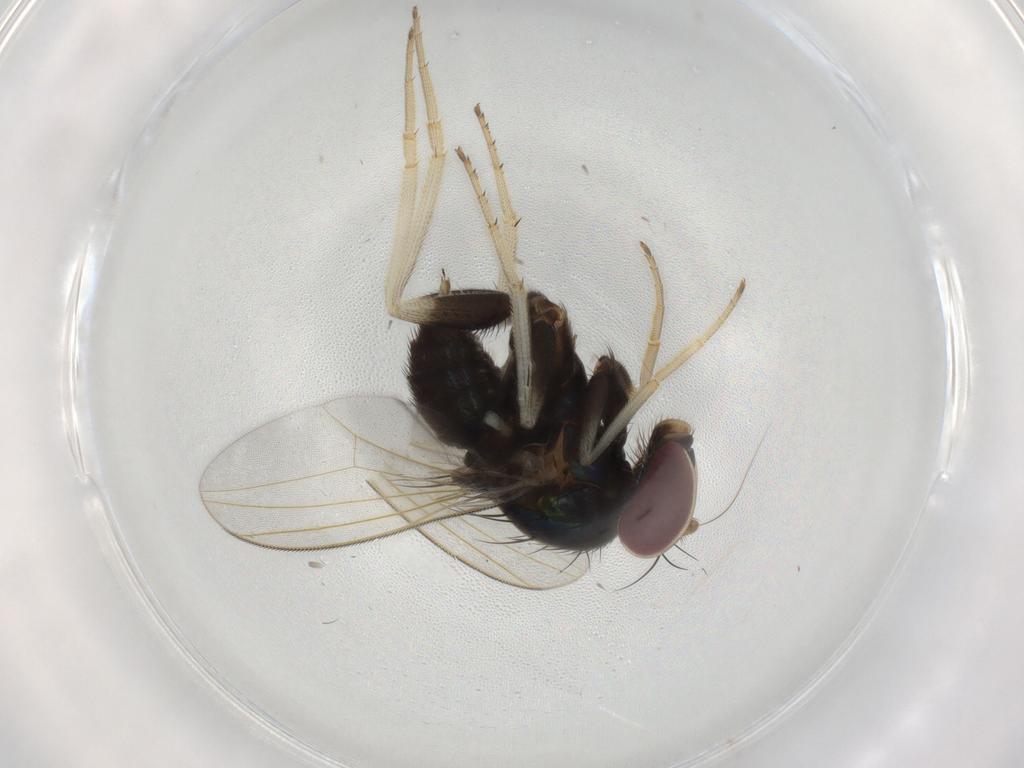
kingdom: Animalia
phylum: Arthropoda
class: Insecta
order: Diptera
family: Dolichopodidae
